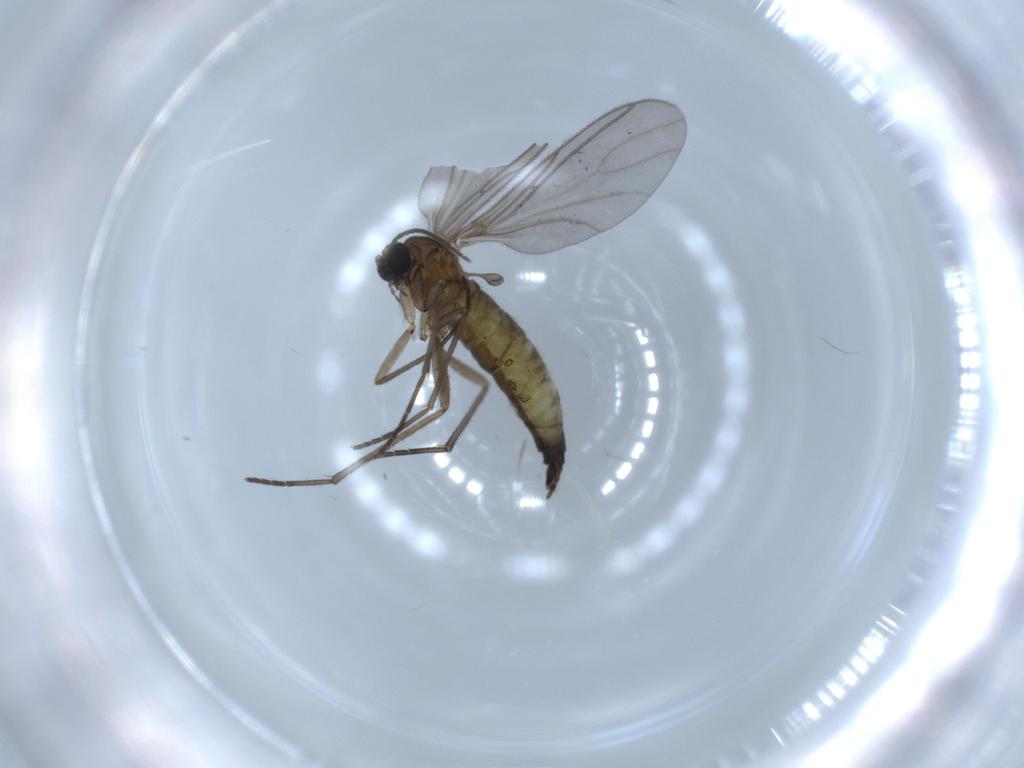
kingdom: Animalia
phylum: Arthropoda
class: Insecta
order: Diptera
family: Sciaridae
